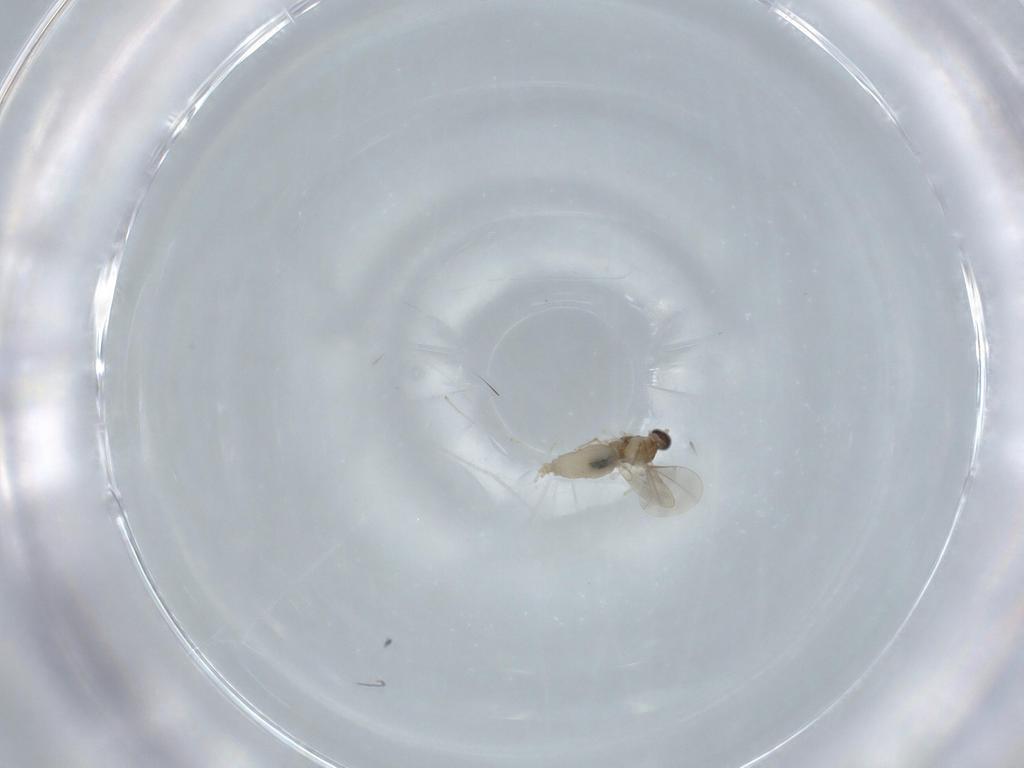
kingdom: Animalia
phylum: Arthropoda
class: Insecta
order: Diptera
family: Cecidomyiidae
